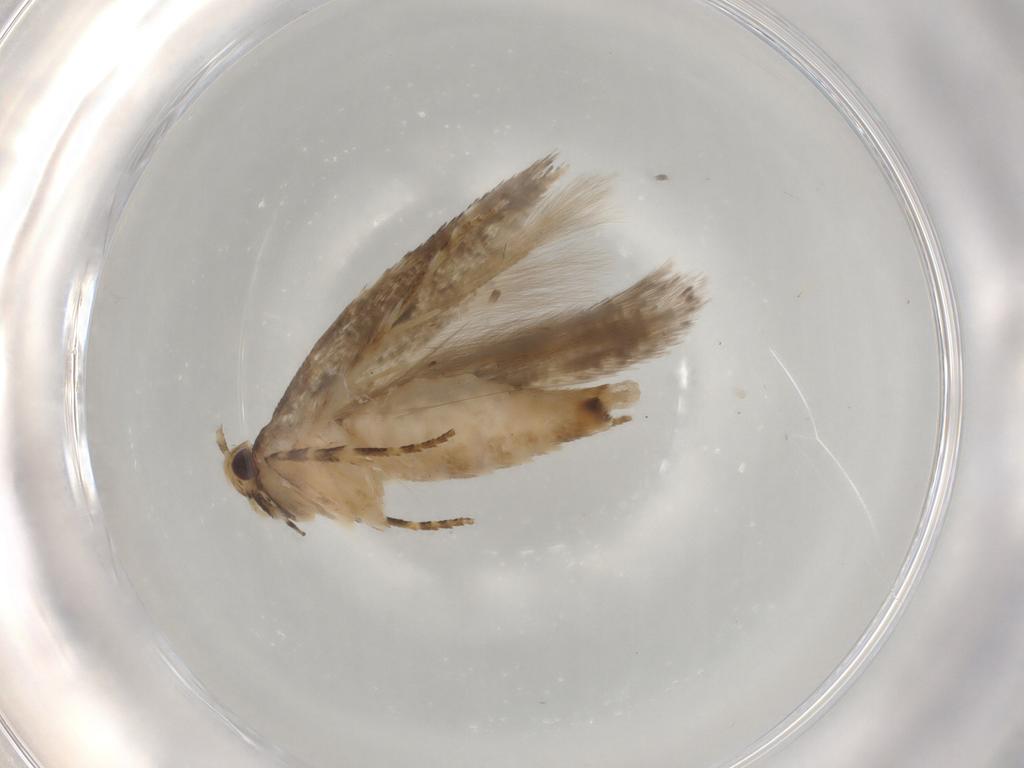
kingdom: Animalia
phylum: Arthropoda
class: Insecta
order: Lepidoptera
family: Gelechiidae
